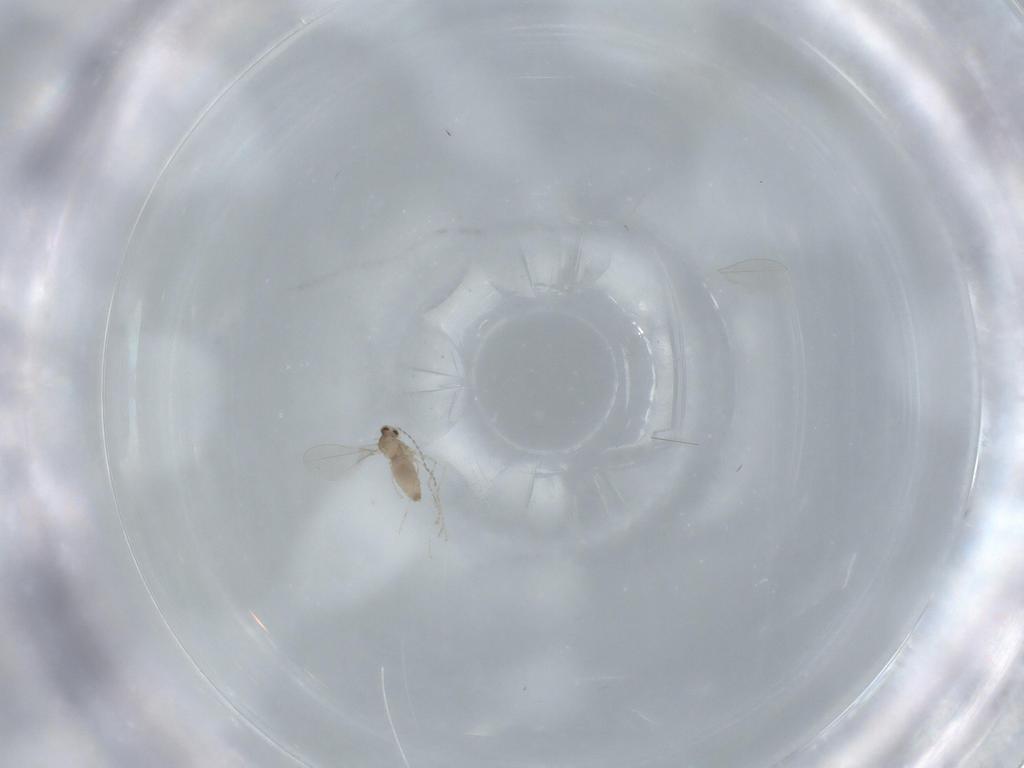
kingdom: Animalia
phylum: Arthropoda
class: Insecta
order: Diptera
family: Cecidomyiidae
